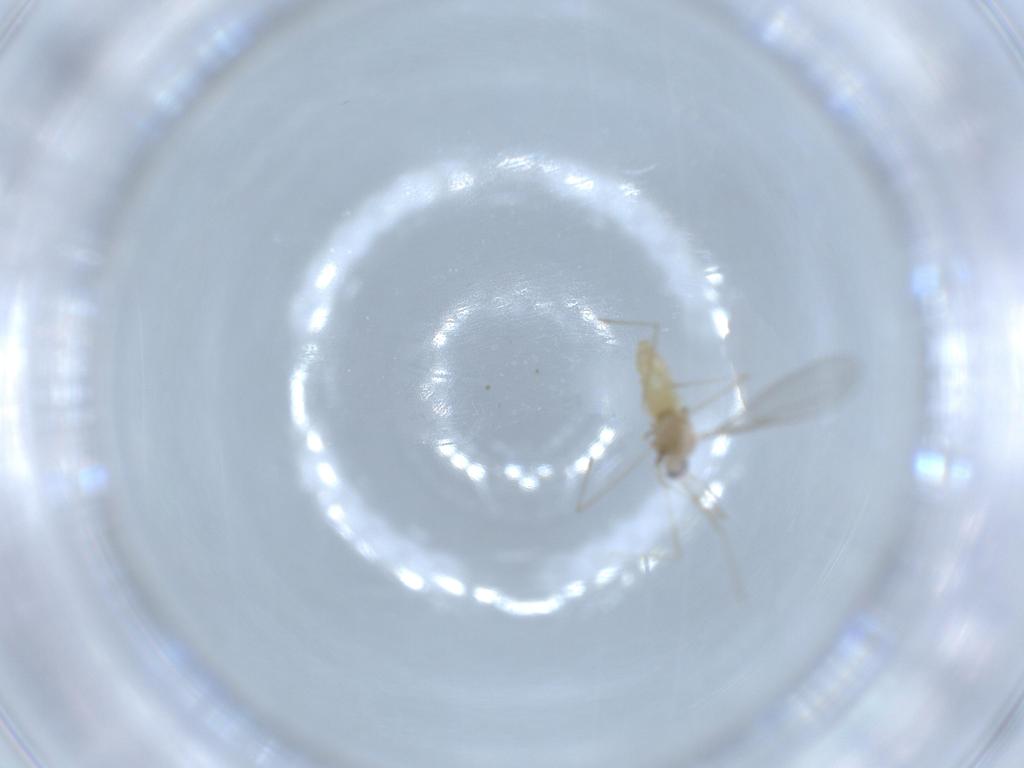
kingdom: Animalia
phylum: Arthropoda
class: Insecta
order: Diptera
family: Cecidomyiidae
